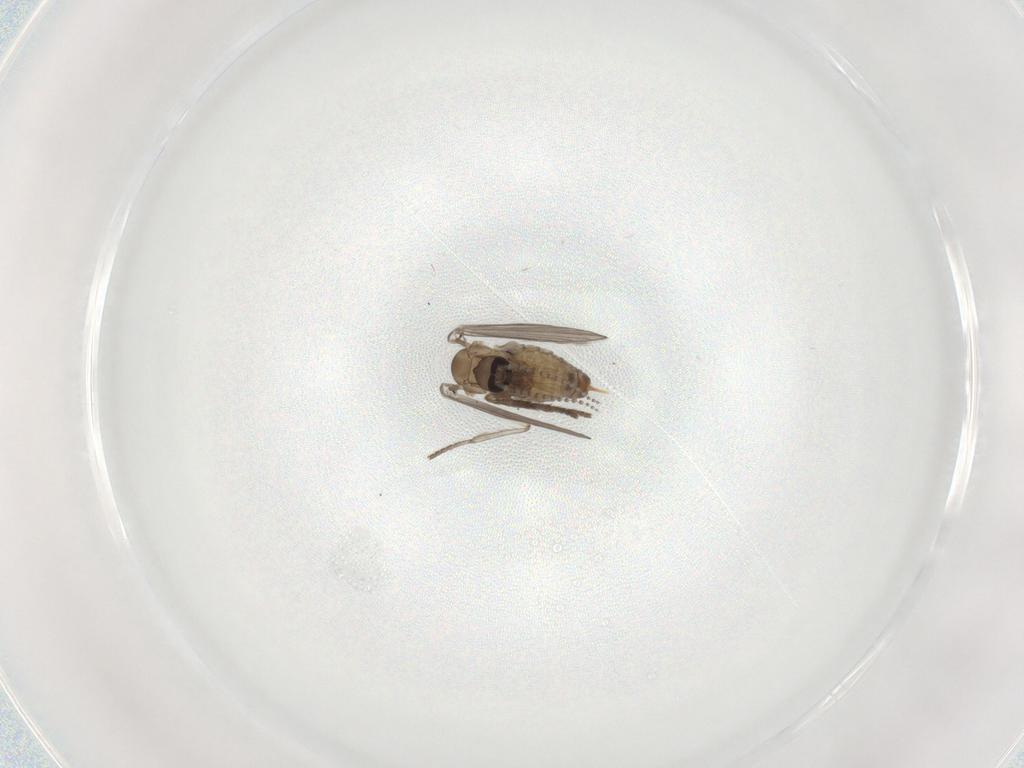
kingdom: Animalia
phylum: Arthropoda
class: Insecta
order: Diptera
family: Psychodidae
